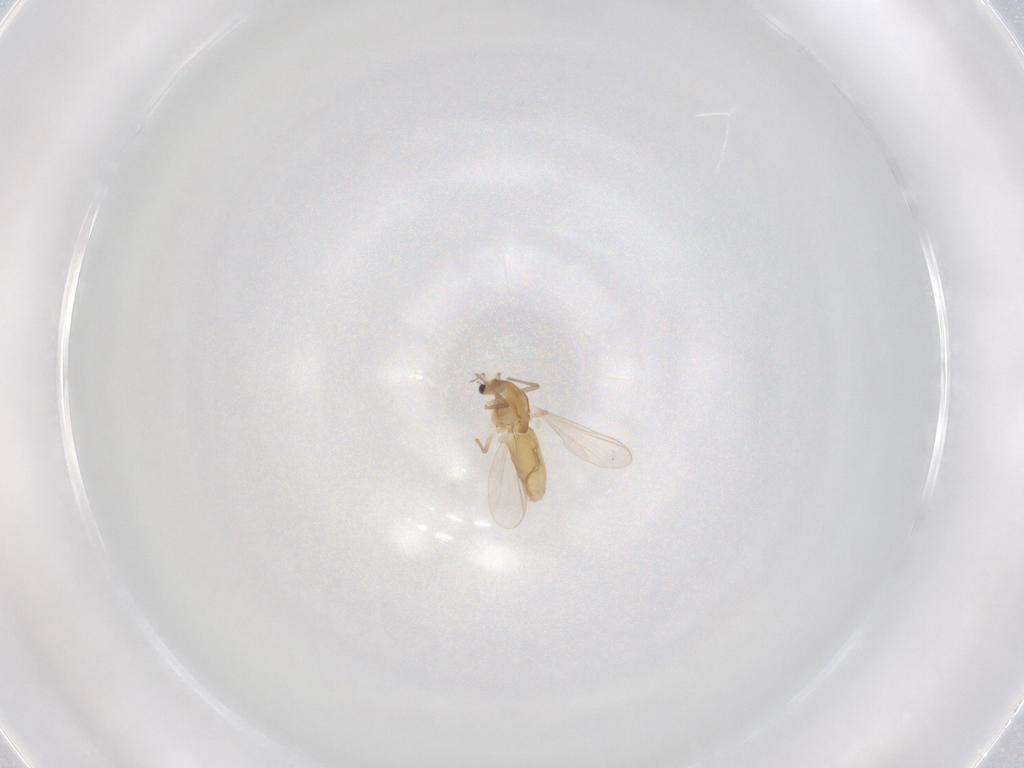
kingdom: Animalia
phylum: Arthropoda
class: Insecta
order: Diptera
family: Chironomidae
